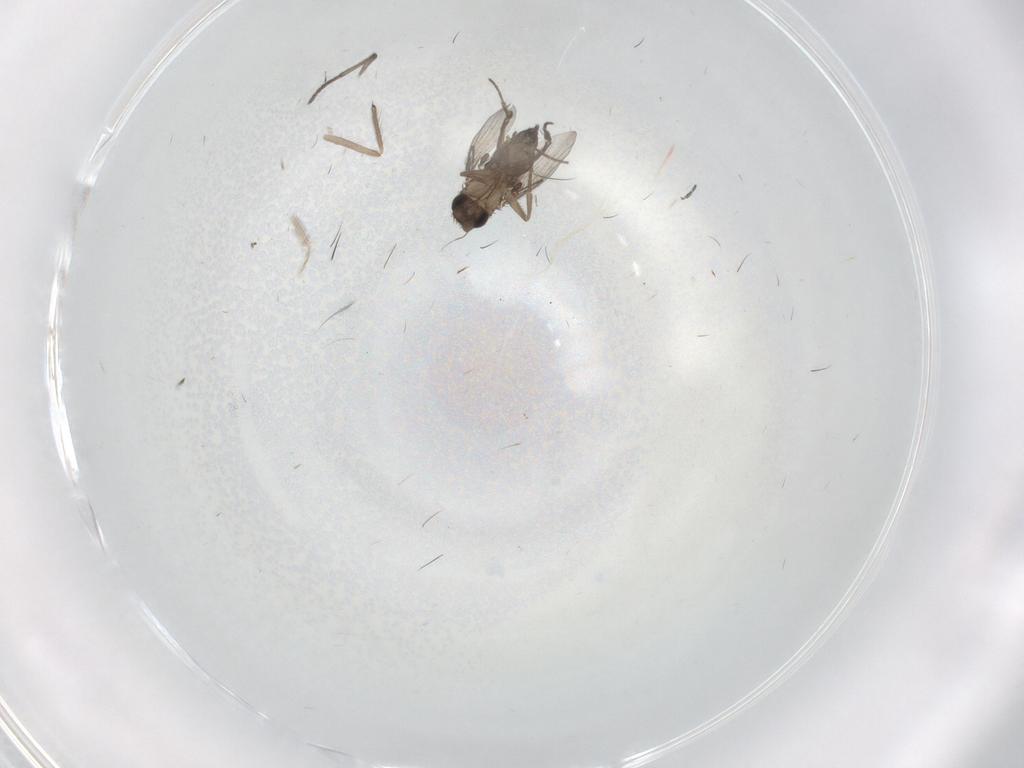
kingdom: Animalia
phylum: Arthropoda
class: Insecta
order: Diptera
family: Sciaridae
